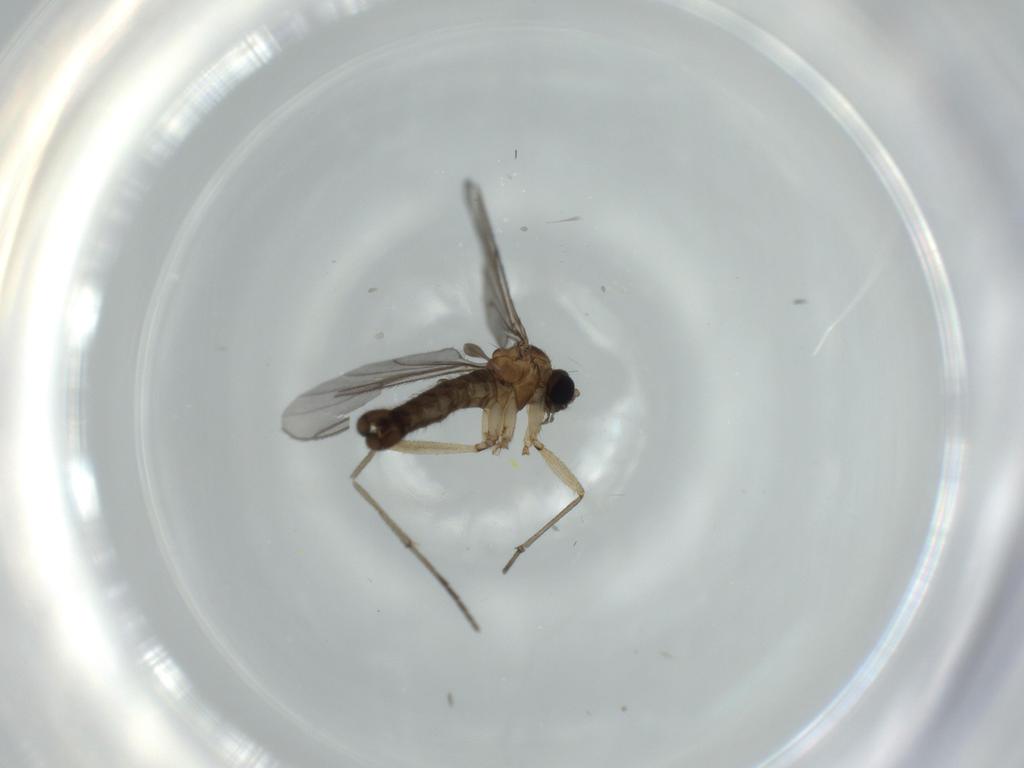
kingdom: Animalia
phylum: Arthropoda
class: Insecta
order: Diptera
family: Sciaridae
